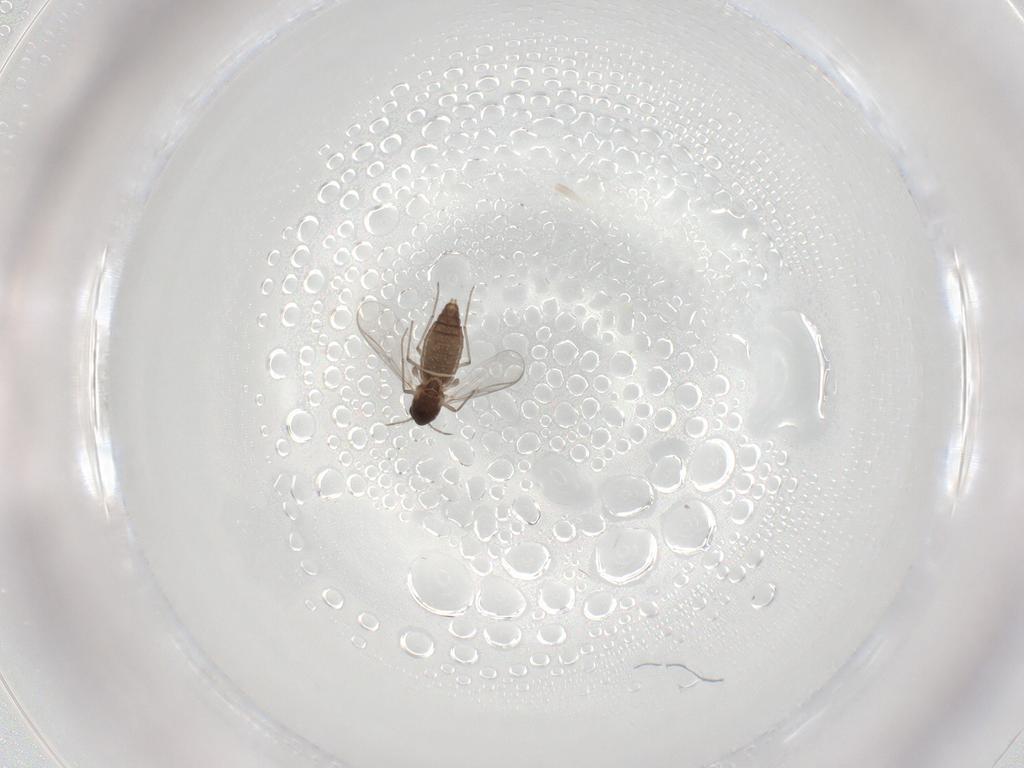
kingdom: Animalia
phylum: Arthropoda
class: Insecta
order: Diptera
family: Chironomidae
